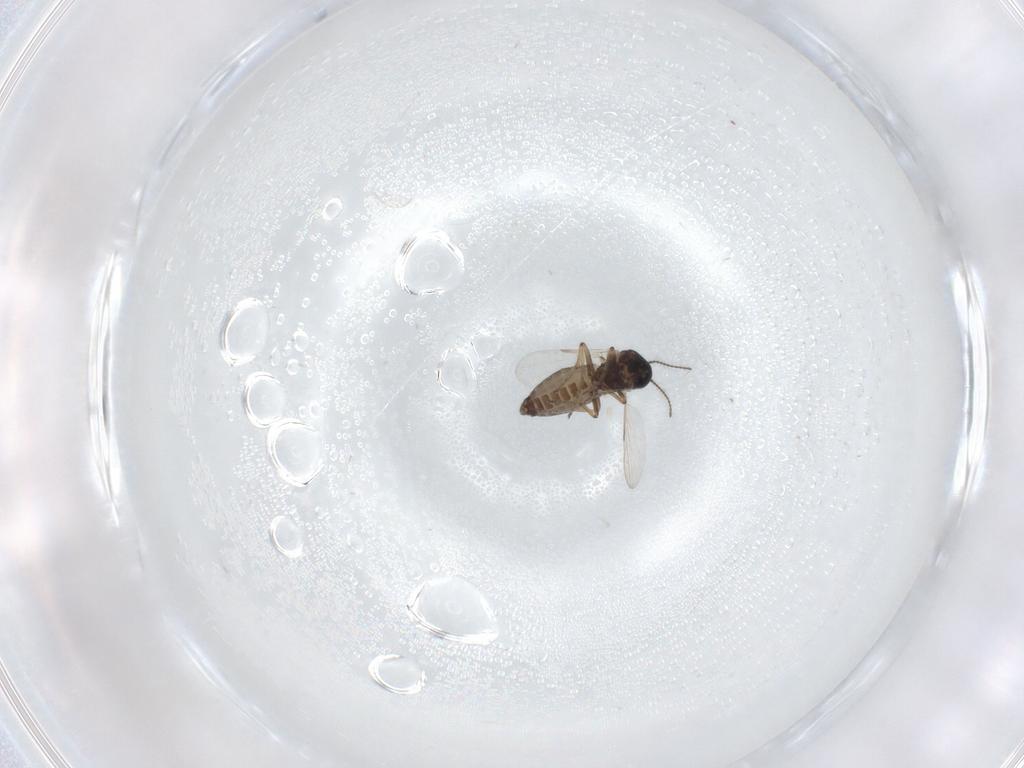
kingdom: Animalia
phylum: Arthropoda
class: Insecta
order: Diptera
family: Ceratopogonidae
